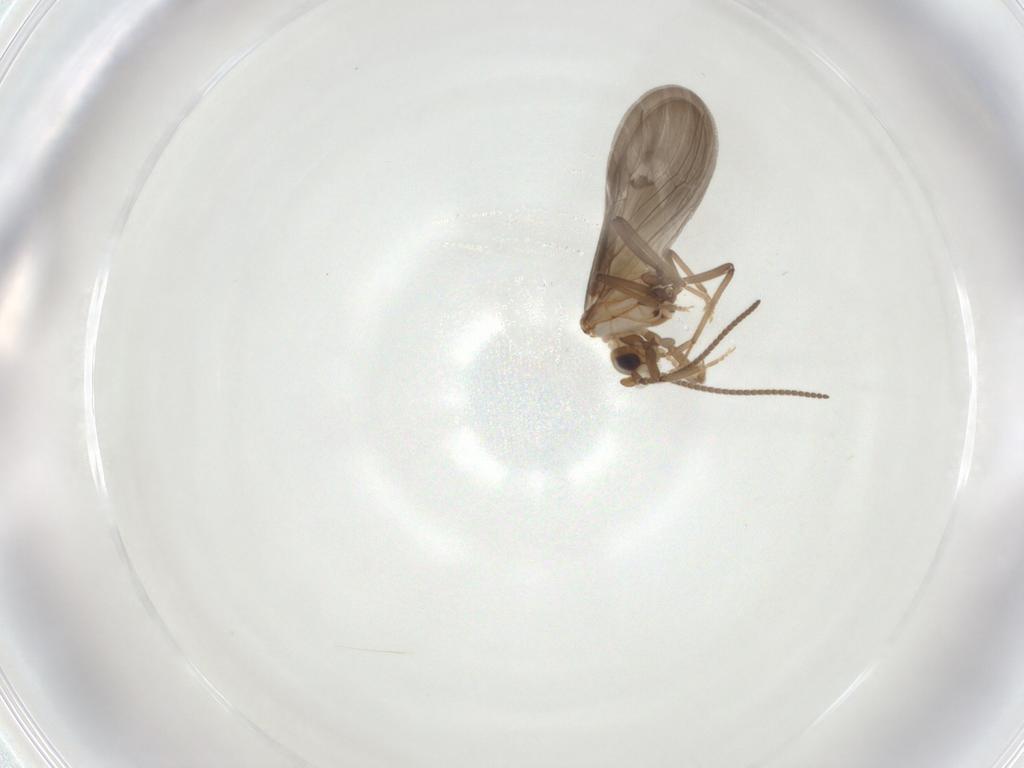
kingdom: Animalia
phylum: Arthropoda
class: Insecta
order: Neuroptera
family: Coniopterygidae
